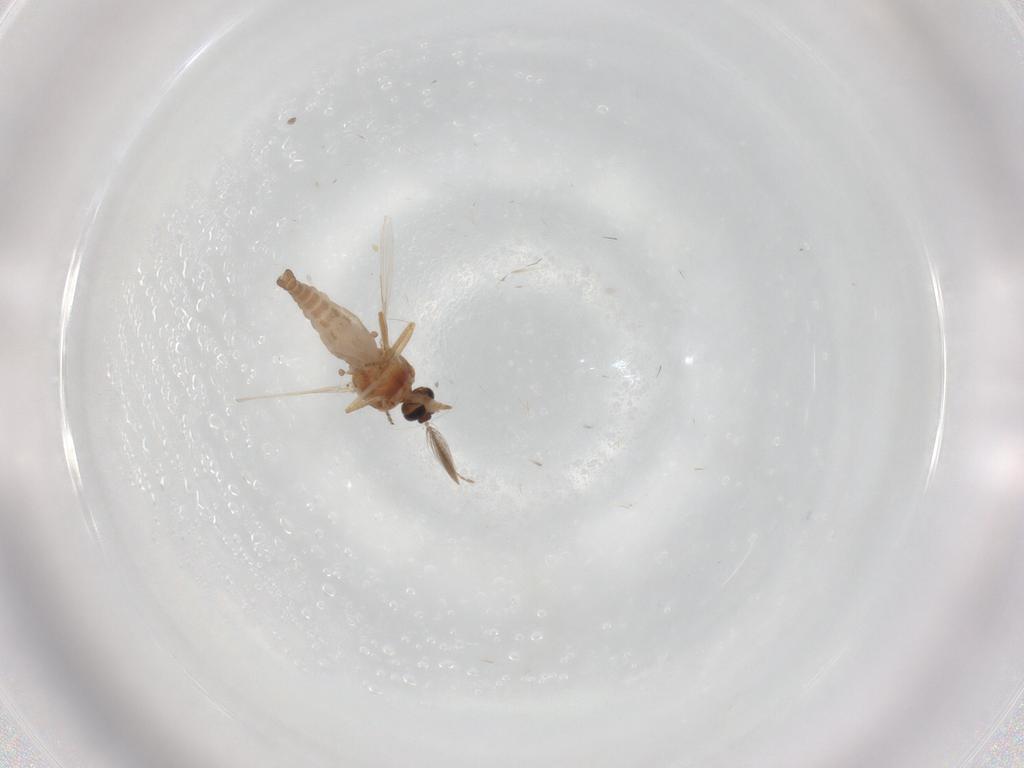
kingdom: Animalia
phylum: Arthropoda
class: Insecta
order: Diptera
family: Ceratopogonidae
